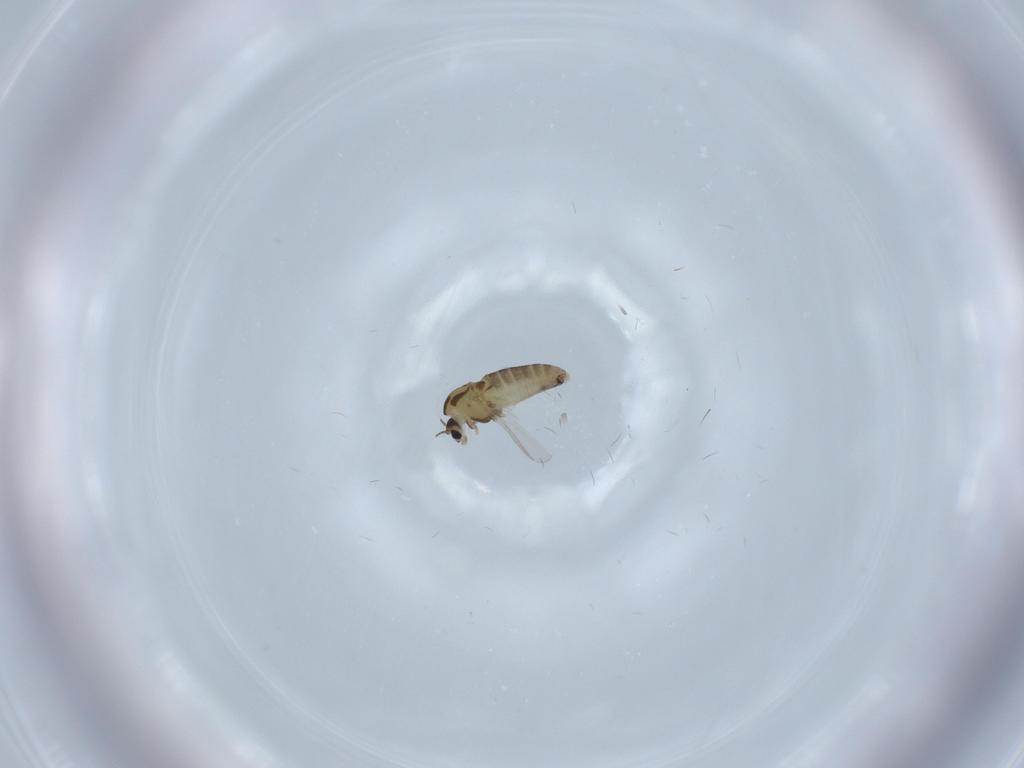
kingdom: Animalia
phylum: Arthropoda
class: Insecta
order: Diptera
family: Chironomidae
